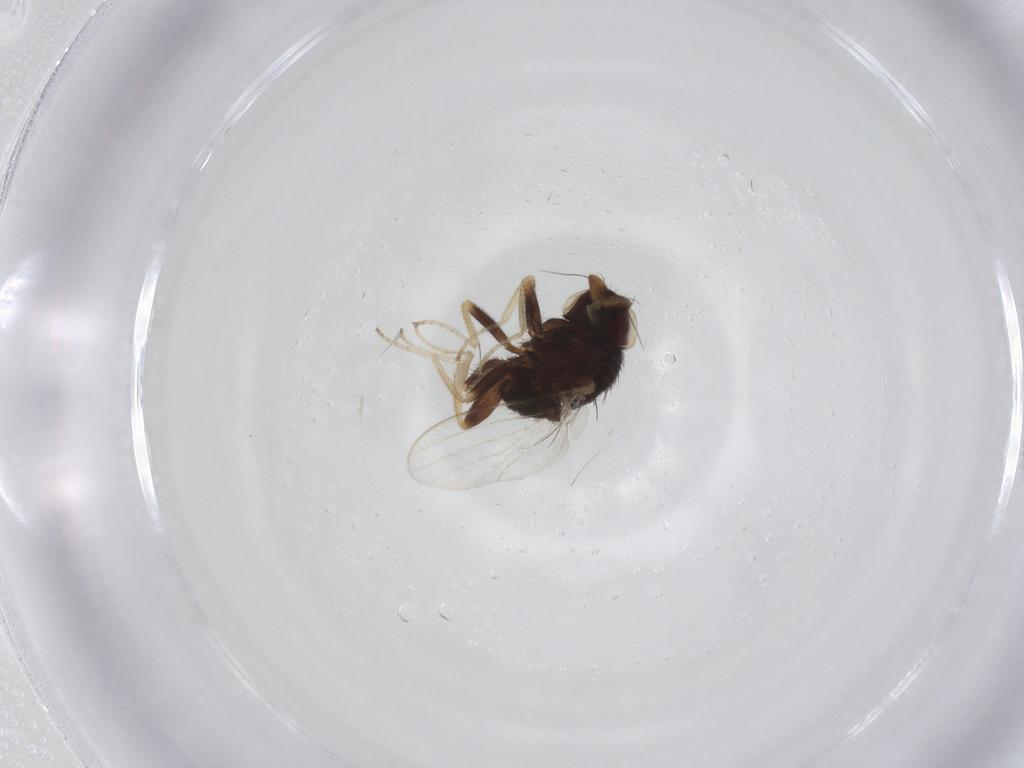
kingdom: Animalia
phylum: Arthropoda
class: Insecta
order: Diptera
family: Milichiidae
